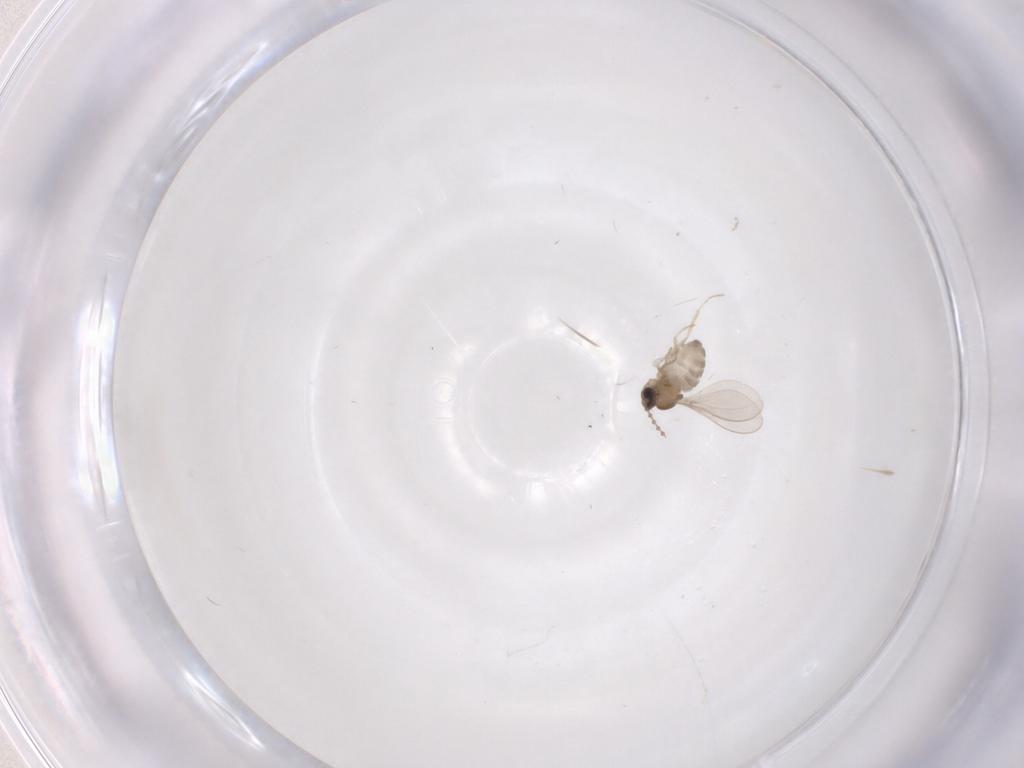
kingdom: Animalia
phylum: Arthropoda
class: Insecta
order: Diptera
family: Cecidomyiidae
